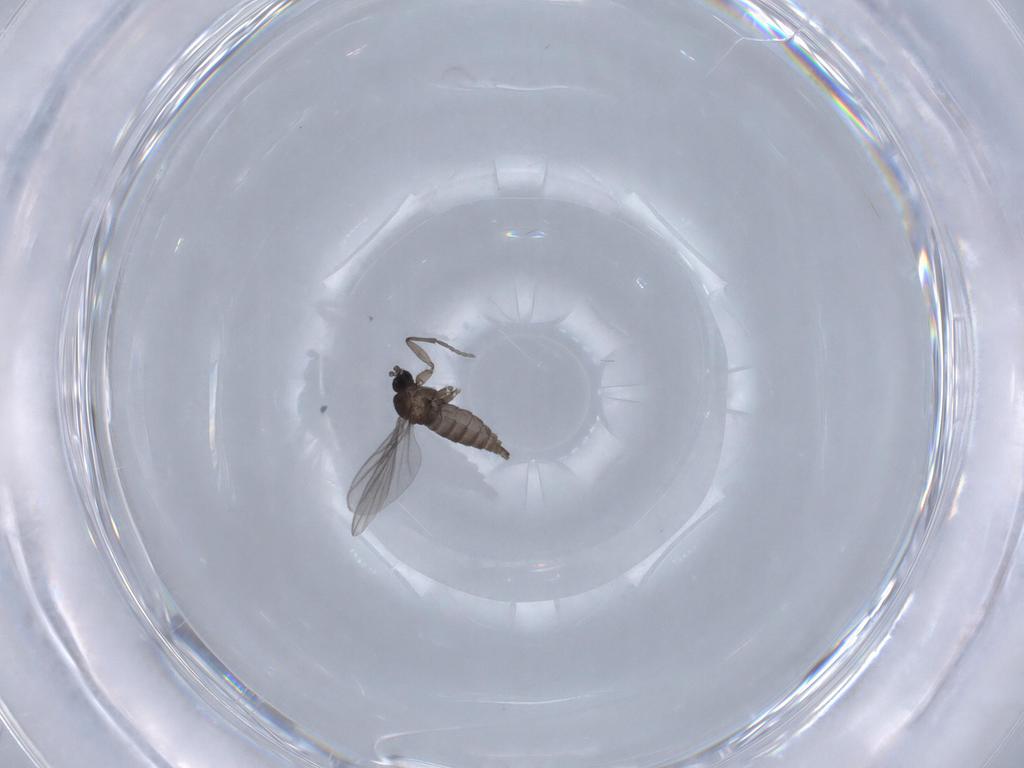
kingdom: Animalia
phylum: Arthropoda
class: Insecta
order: Diptera
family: Sciaridae
